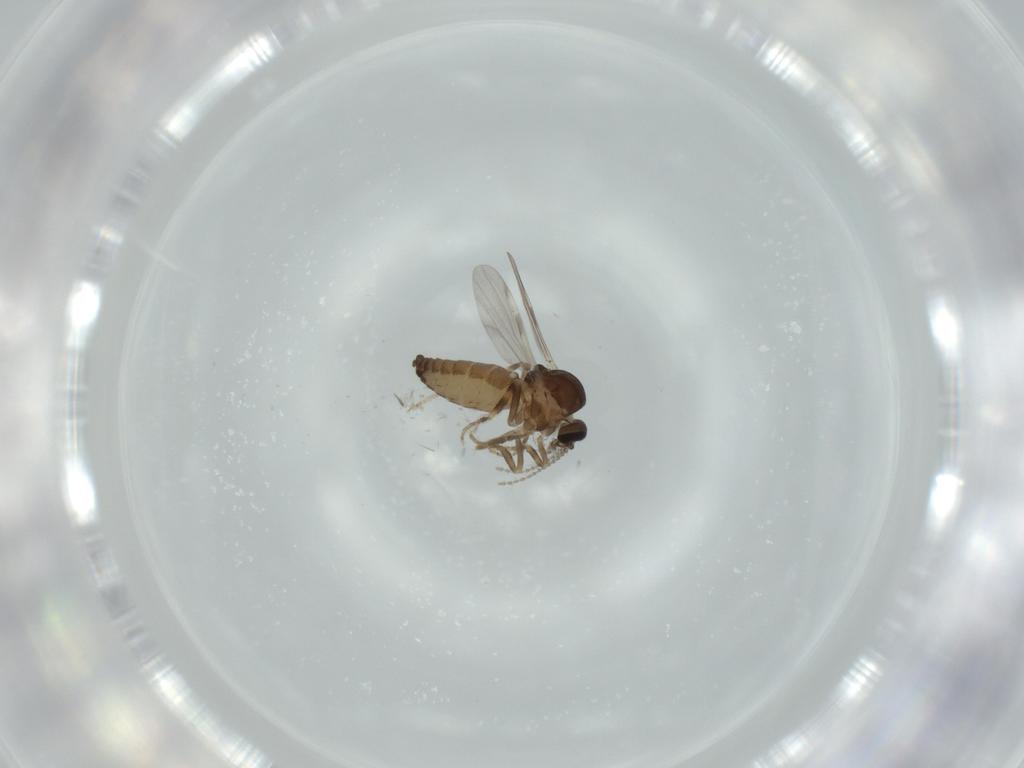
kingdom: Animalia
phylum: Arthropoda
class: Insecta
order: Diptera
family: Ceratopogonidae
